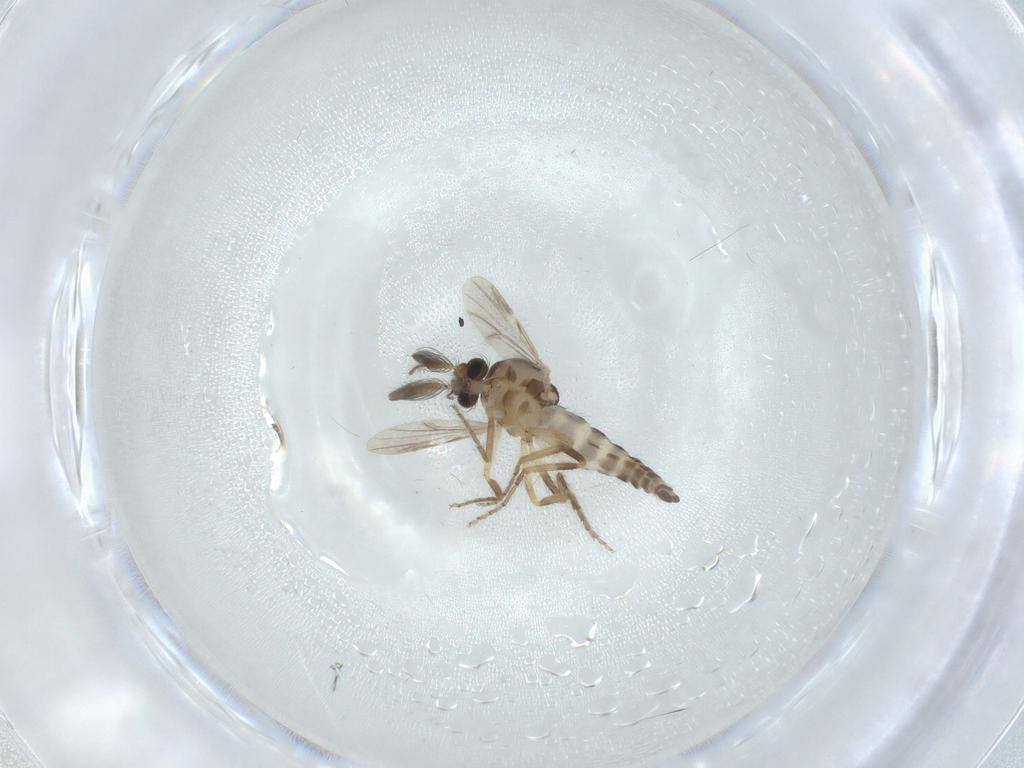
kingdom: Animalia
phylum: Arthropoda
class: Insecta
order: Diptera
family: Ceratopogonidae
